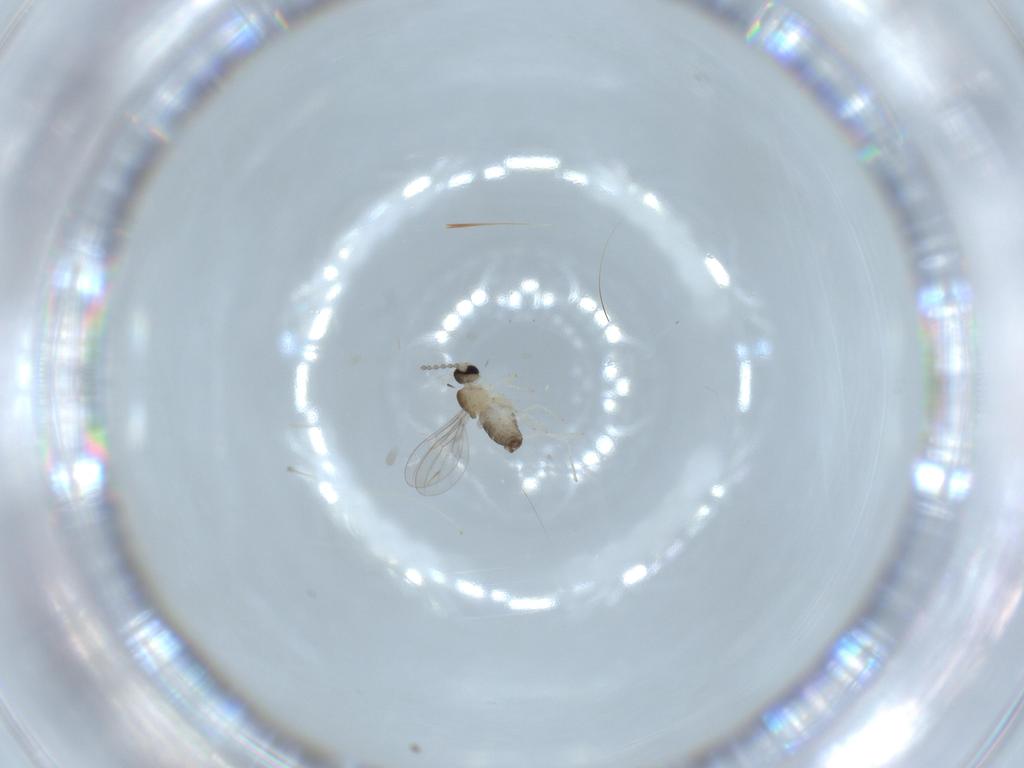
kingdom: Animalia
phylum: Arthropoda
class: Insecta
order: Diptera
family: Cecidomyiidae
